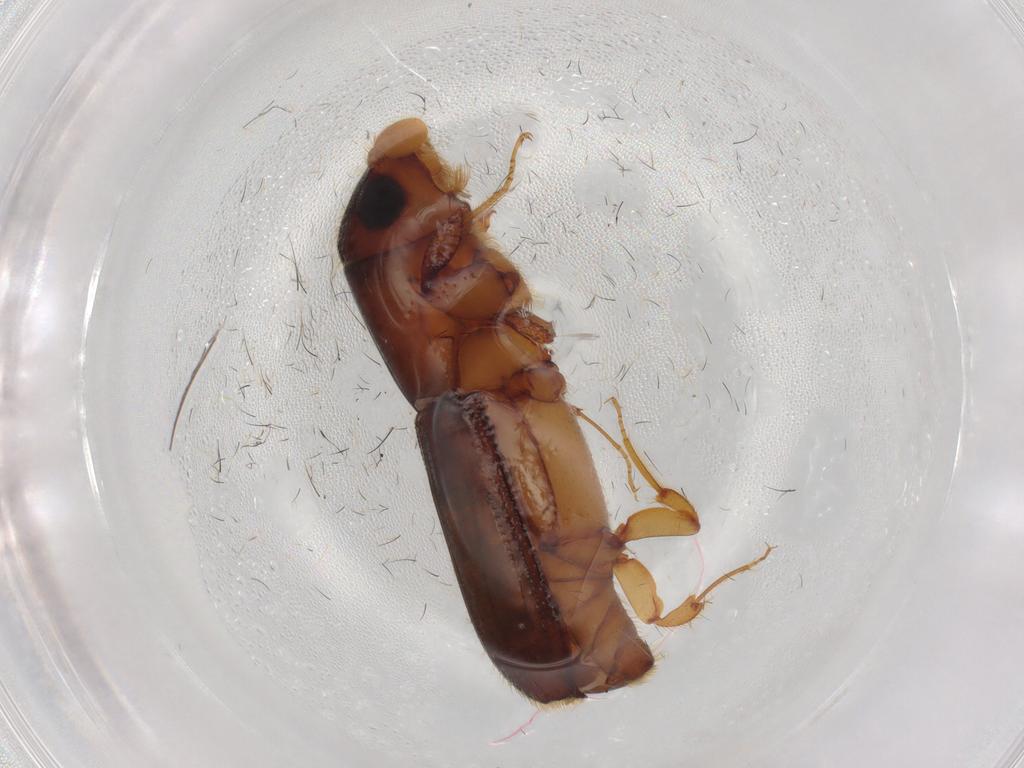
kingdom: Animalia
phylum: Arthropoda
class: Insecta
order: Coleoptera
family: Curculionidae
